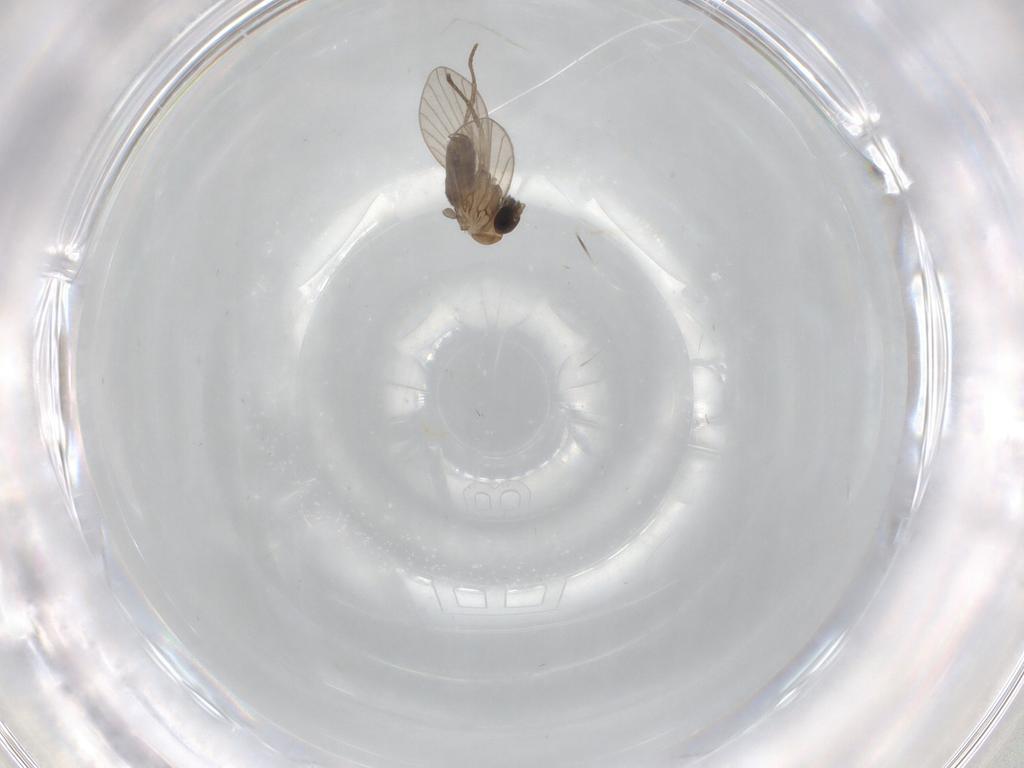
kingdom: Animalia
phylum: Arthropoda
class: Insecta
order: Diptera
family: Psychodidae
